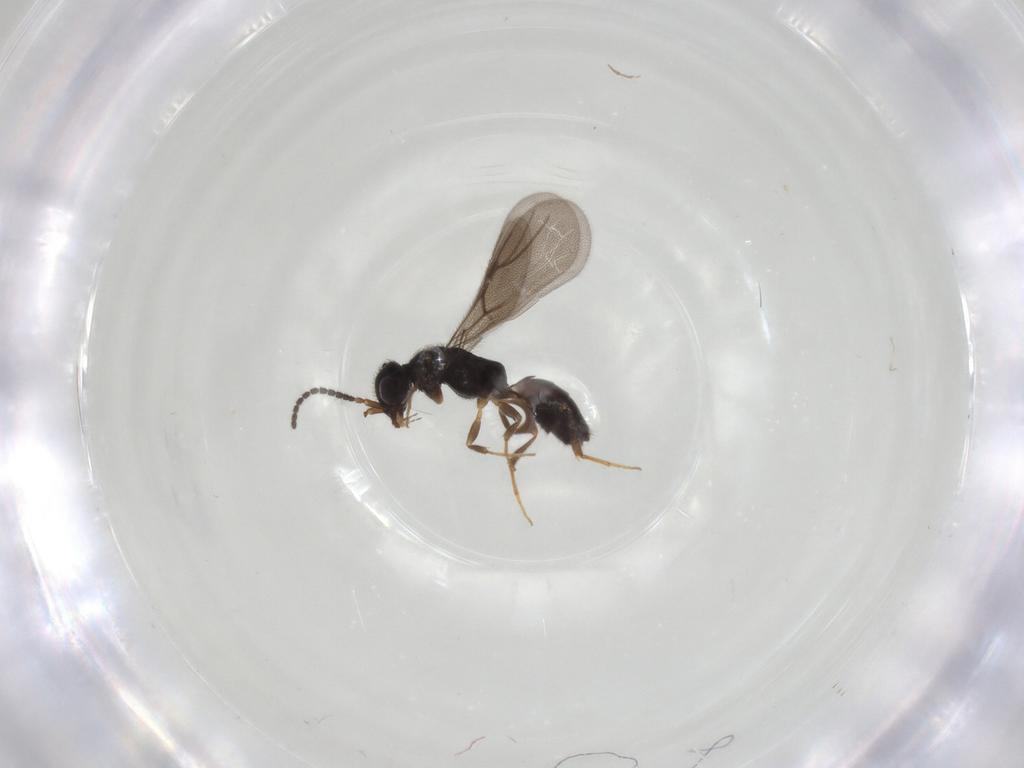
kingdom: Animalia
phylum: Arthropoda
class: Insecta
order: Hymenoptera
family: Bethylidae
